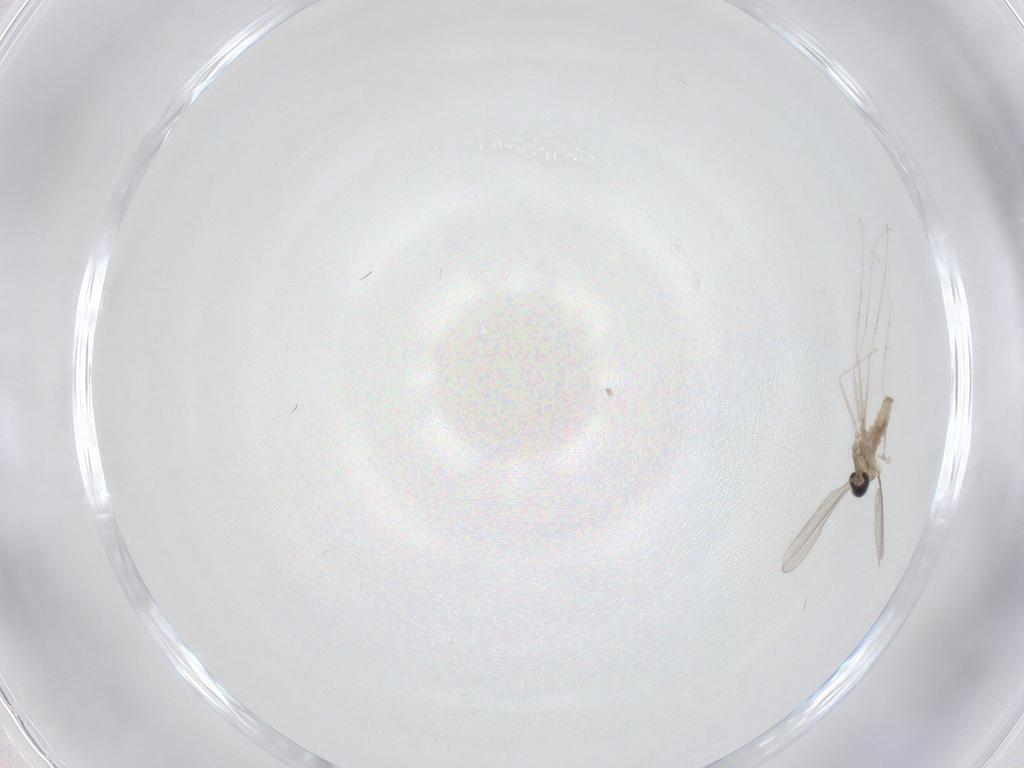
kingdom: Animalia
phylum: Arthropoda
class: Insecta
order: Diptera
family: Cecidomyiidae
